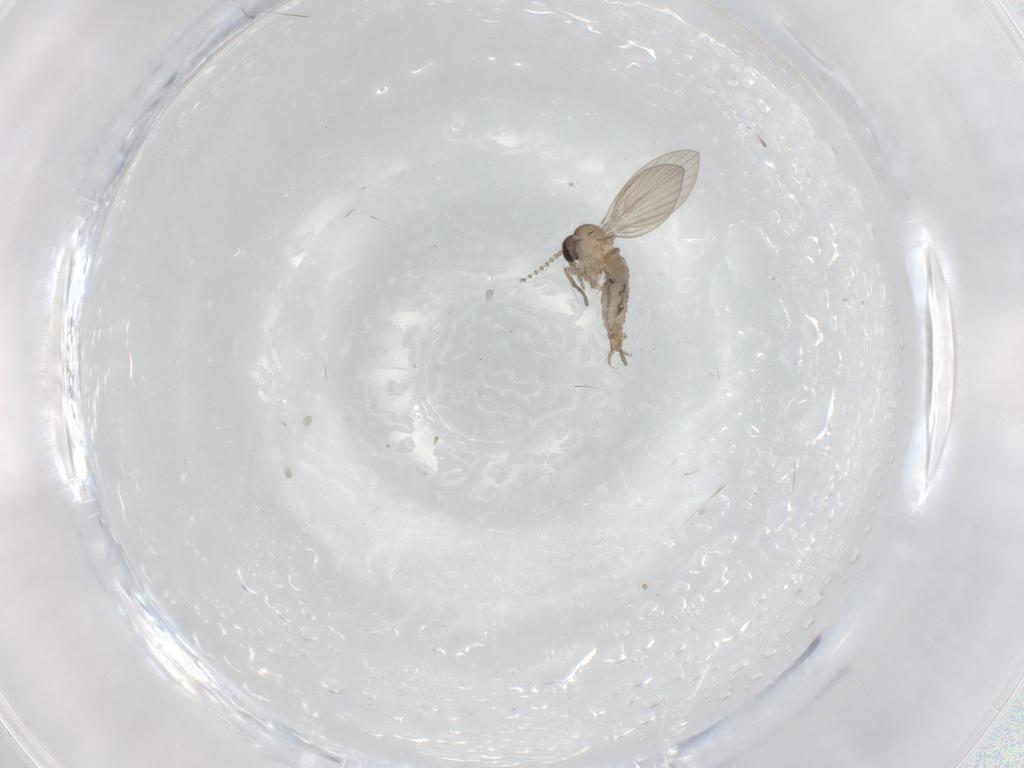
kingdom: Animalia
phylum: Arthropoda
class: Insecta
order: Diptera
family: Psychodidae
